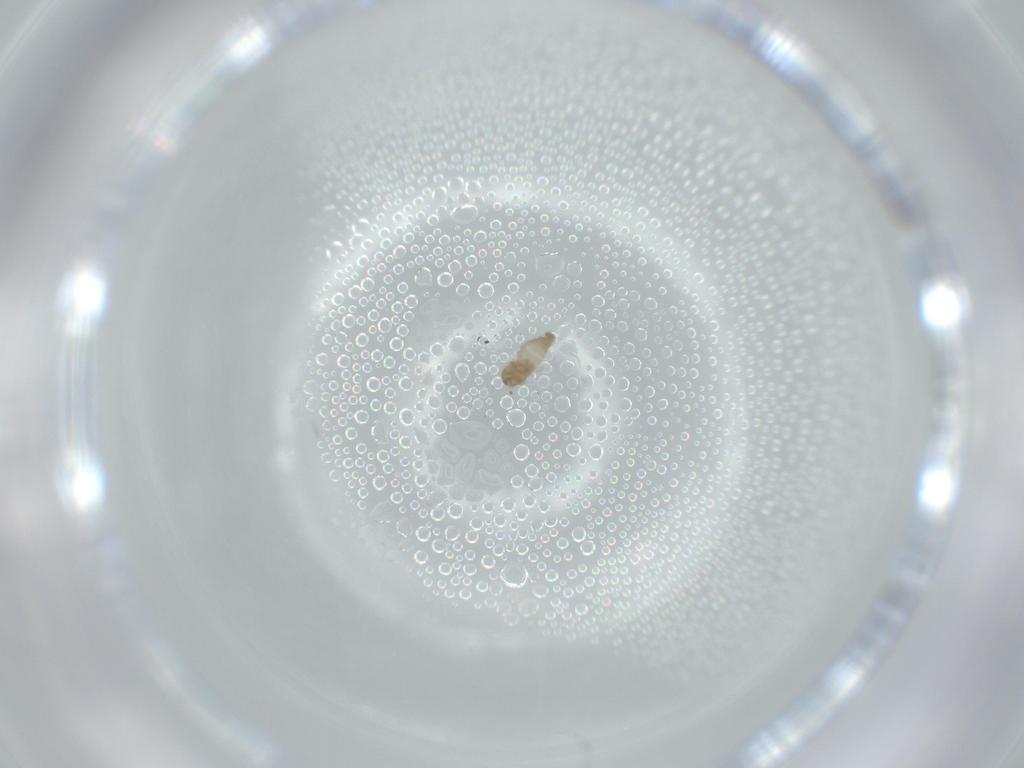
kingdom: Animalia
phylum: Arthropoda
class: Insecta
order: Diptera
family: Cecidomyiidae
